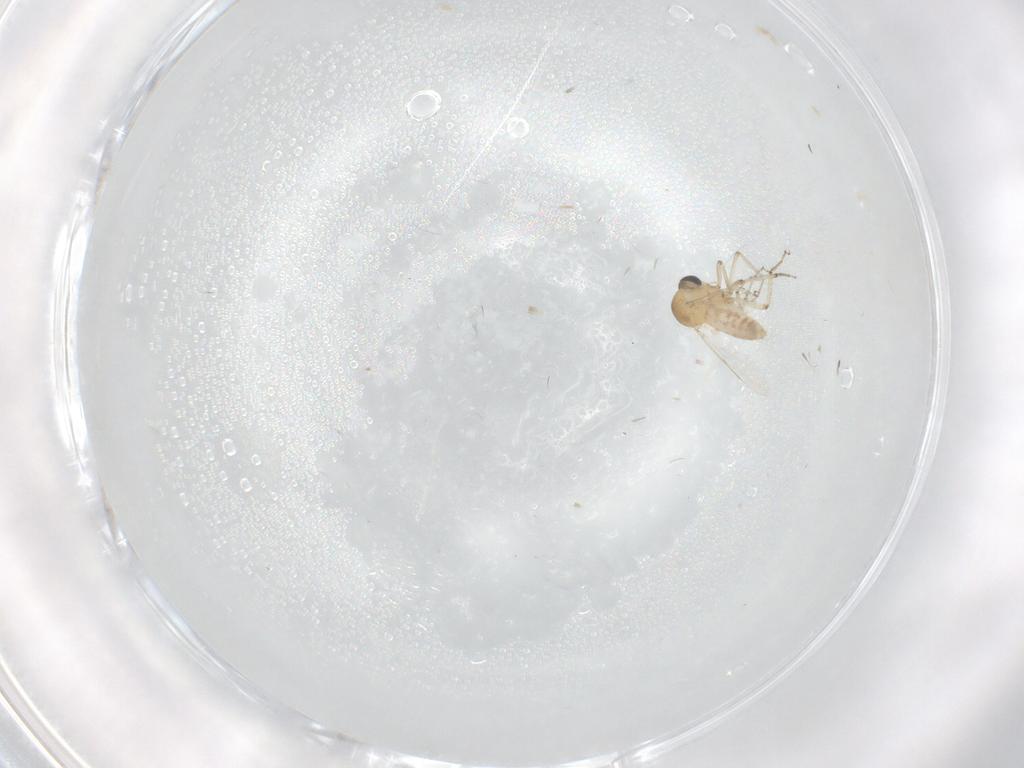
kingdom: Animalia
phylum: Arthropoda
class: Insecta
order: Diptera
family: Ceratopogonidae
